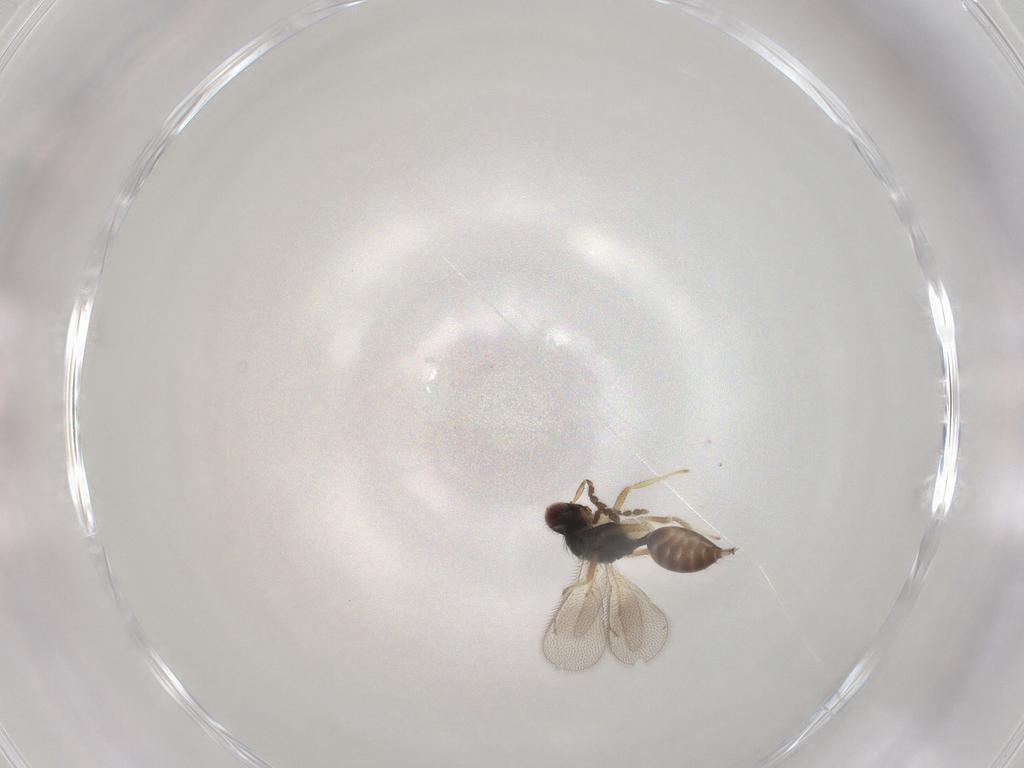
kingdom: Animalia
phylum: Arthropoda
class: Insecta
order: Hymenoptera
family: Eulophidae
